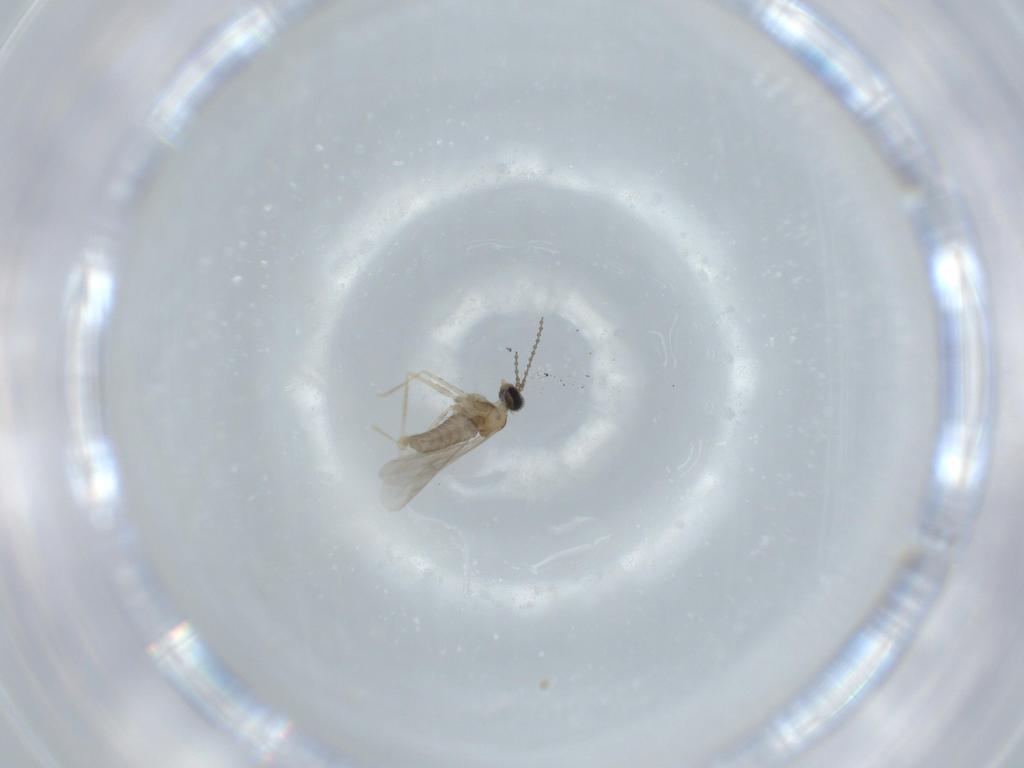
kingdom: Animalia
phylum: Arthropoda
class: Insecta
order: Diptera
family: Cecidomyiidae
